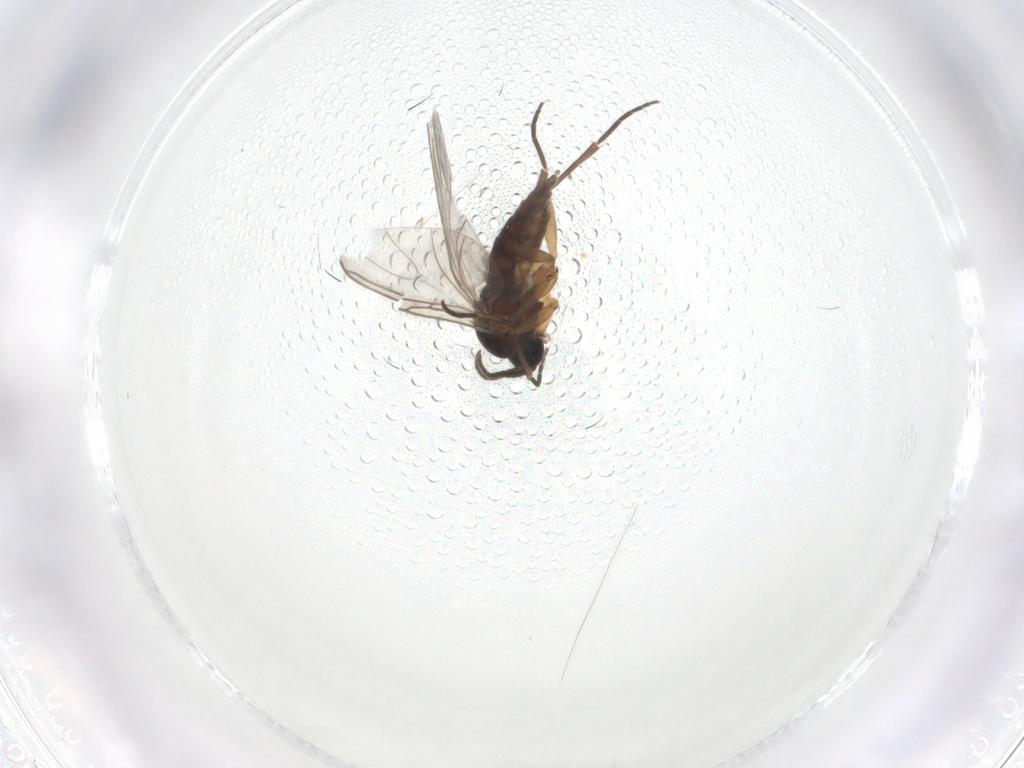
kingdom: Animalia
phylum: Arthropoda
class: Insecta
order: Diptera
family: Sciaridae
